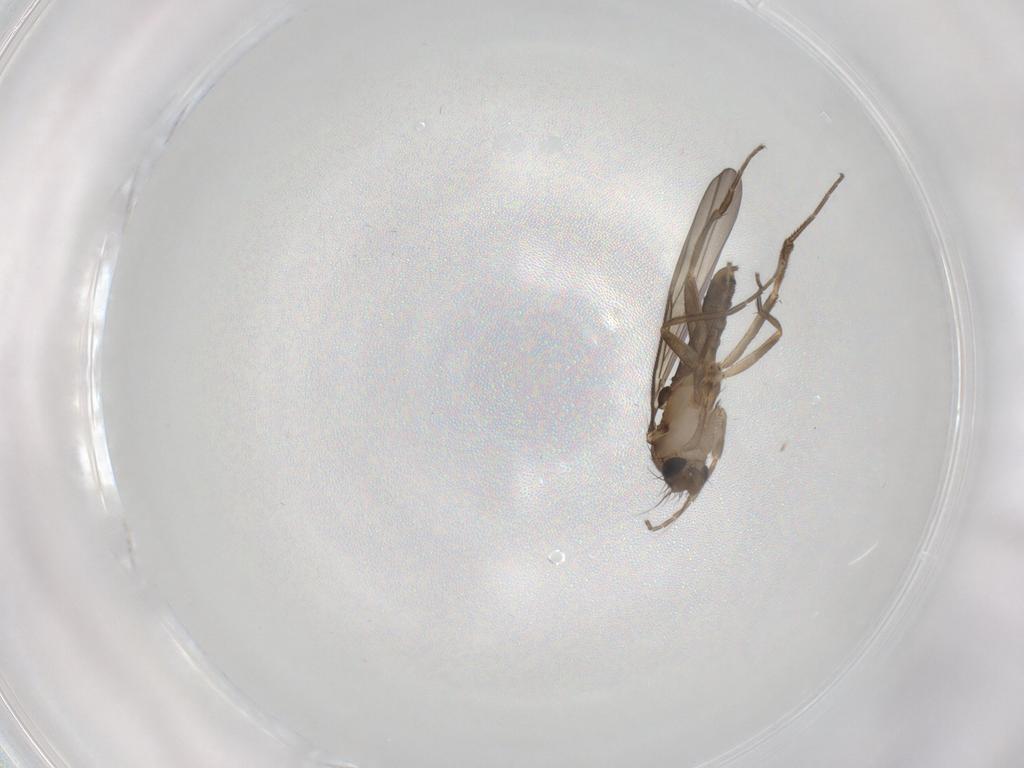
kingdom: Animalia
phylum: Arthropoda
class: Insecta
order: Diptera
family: Phoridae
